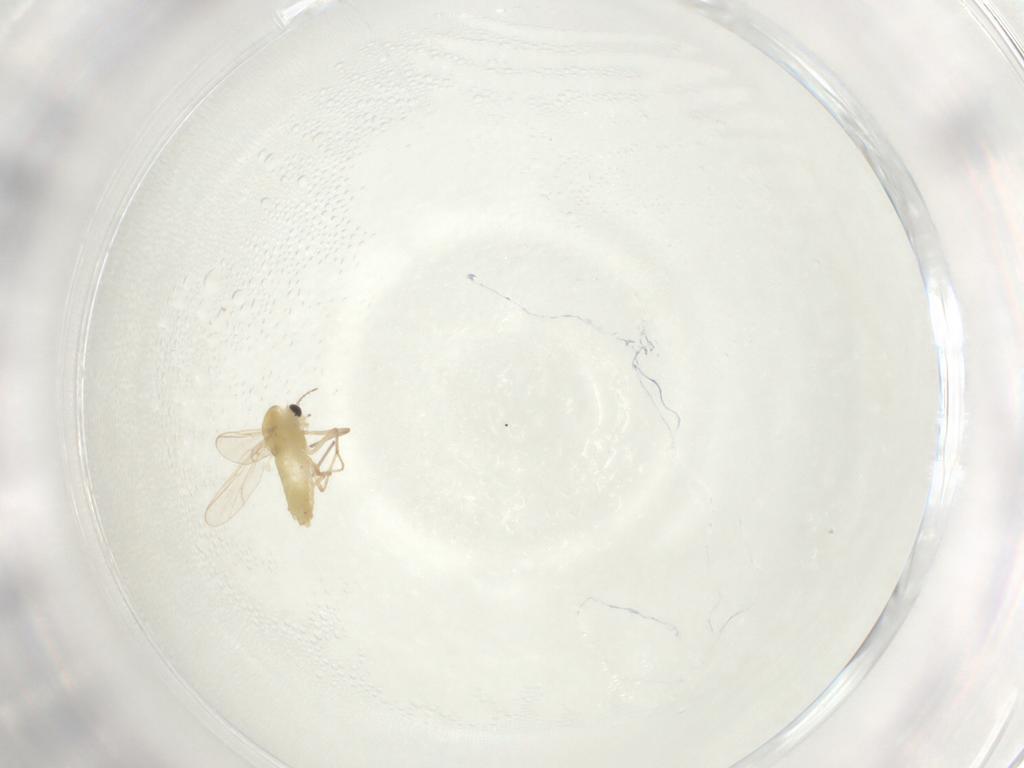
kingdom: Animalia
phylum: Arthropoda
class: Insecta
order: Diptera
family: Chironomidae
